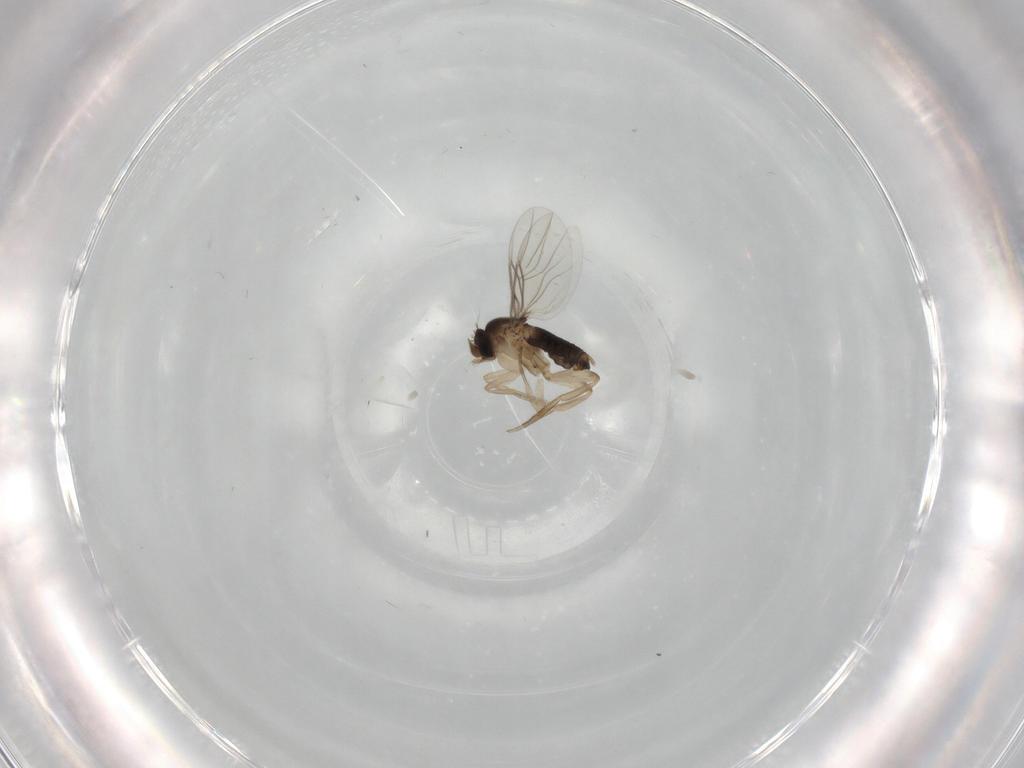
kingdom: Animalia
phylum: Arthropoda
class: Insecta
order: Diptera
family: Phoridae
